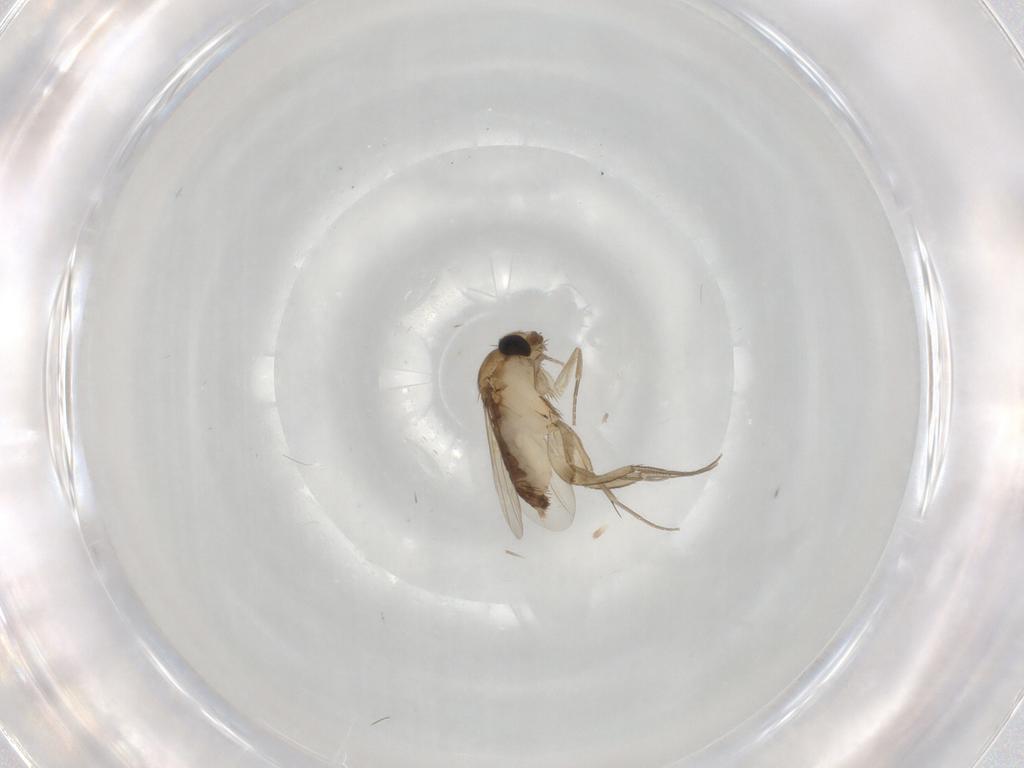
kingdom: Animalia
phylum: Arthropoda
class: Insecta
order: Diptera
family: Phoridae
